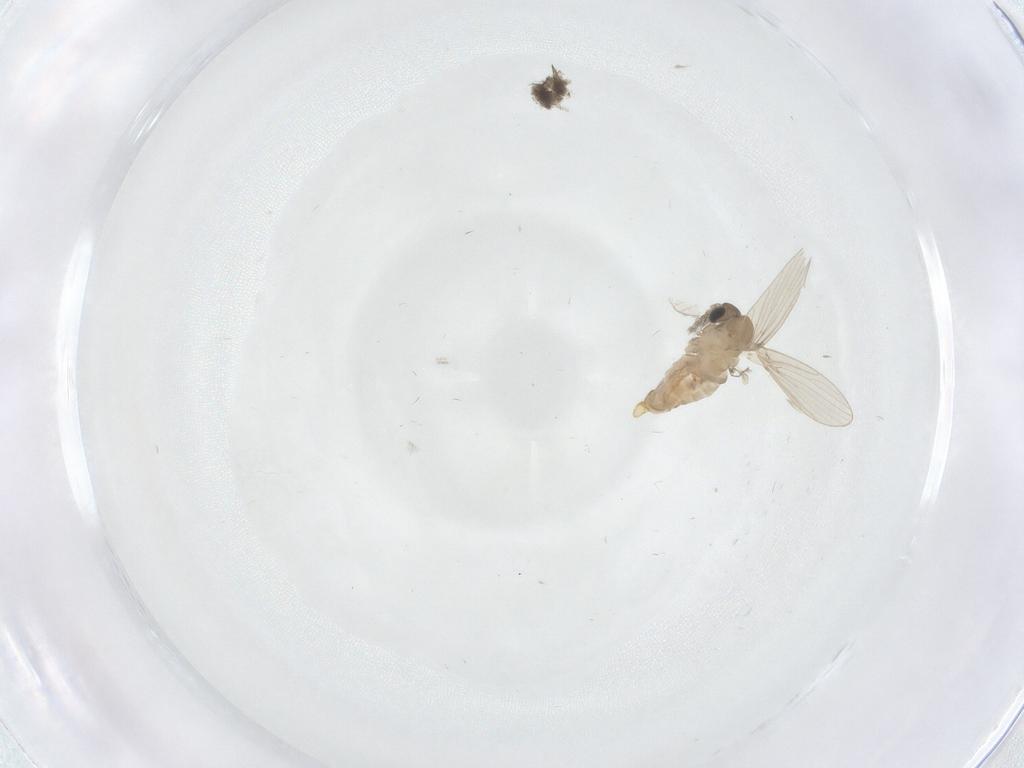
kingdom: Animalia
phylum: Arthropoda
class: Insecta
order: Diptera
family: Psychodidae
